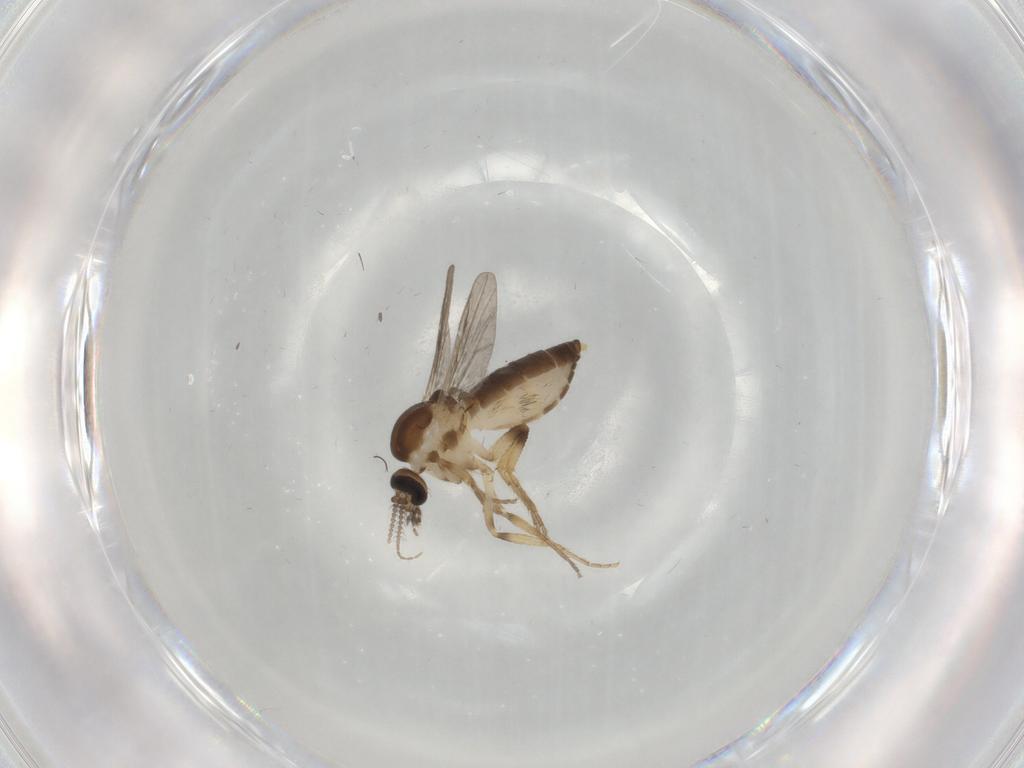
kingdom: Animalia
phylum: Arthropoda
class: Insecta
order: Diptera
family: Ceratopogonidae
